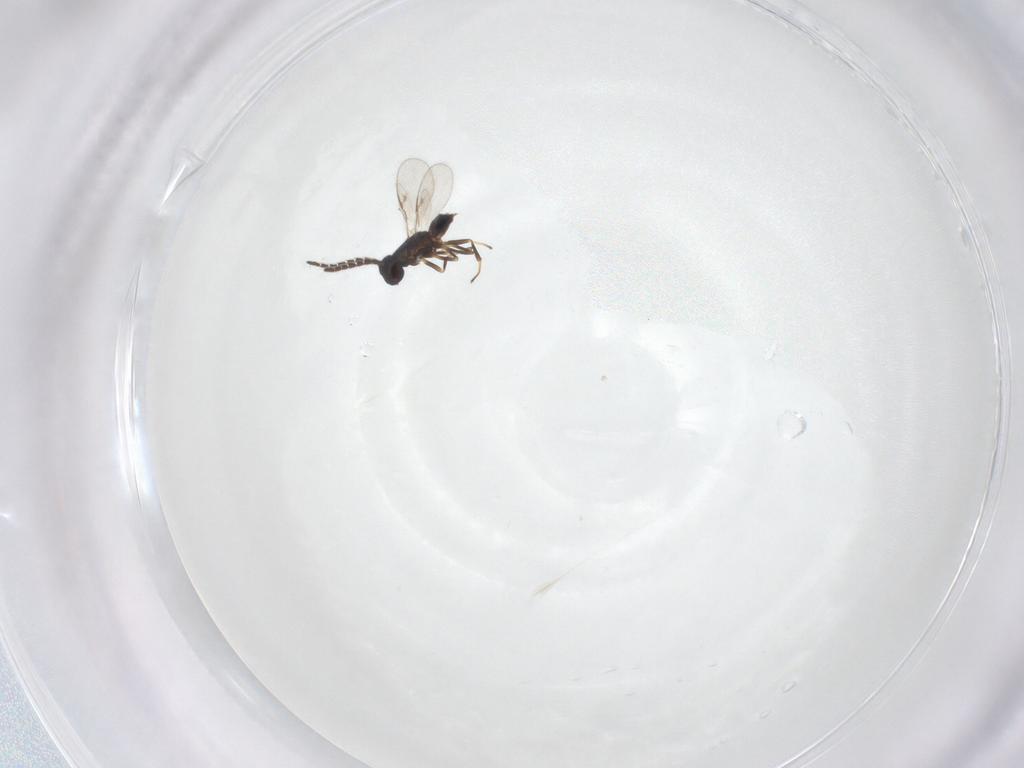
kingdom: Animalia
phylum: Arthropoda
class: Insecta
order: Hymenoptera
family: Encyrtidae
